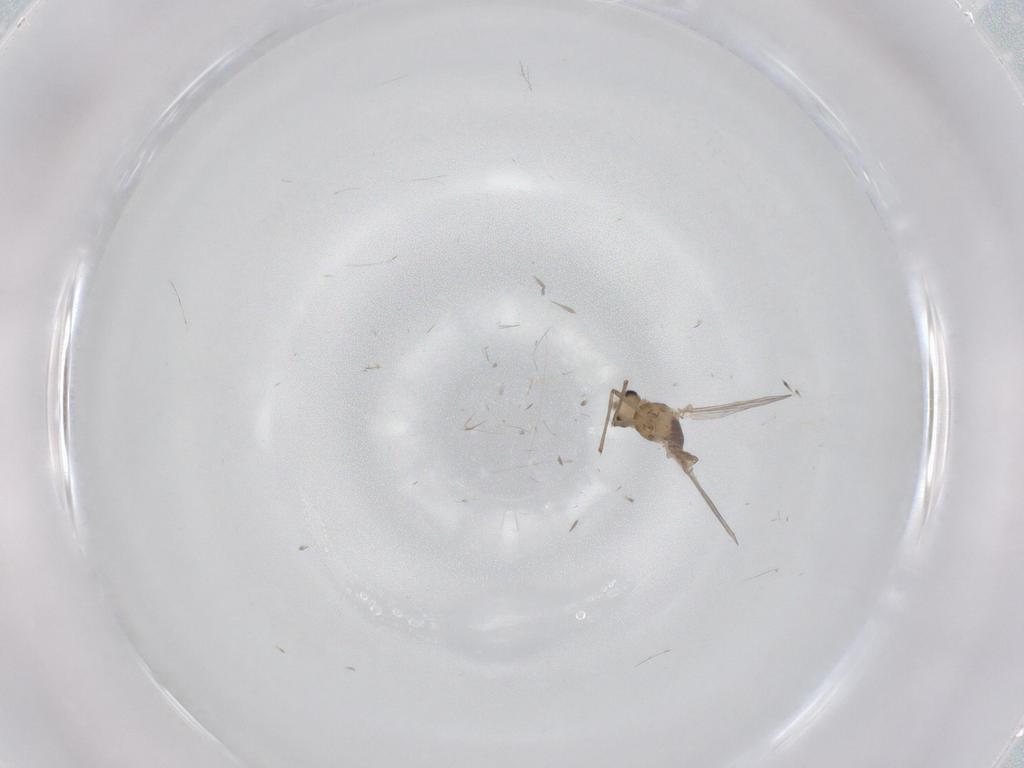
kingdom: Animalia
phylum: Arthropoda
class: Insecta
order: Diptera
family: Chironomidae
